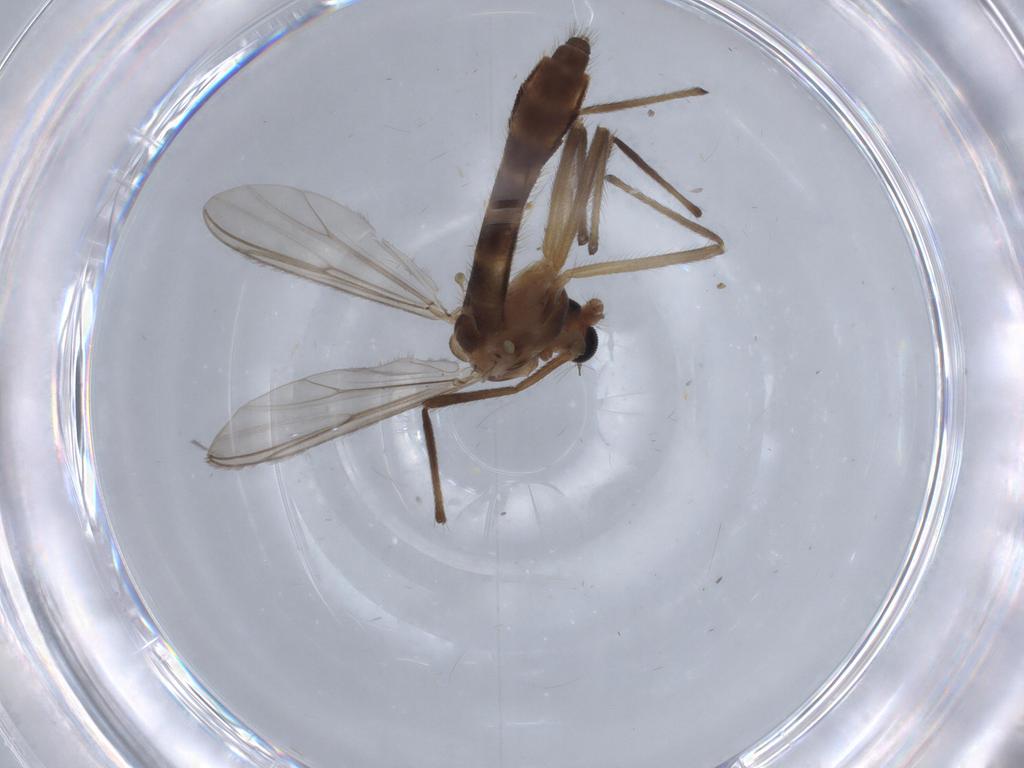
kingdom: Animalia
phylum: Arthropoda
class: Insecta
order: Diptera
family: Chironomidae
